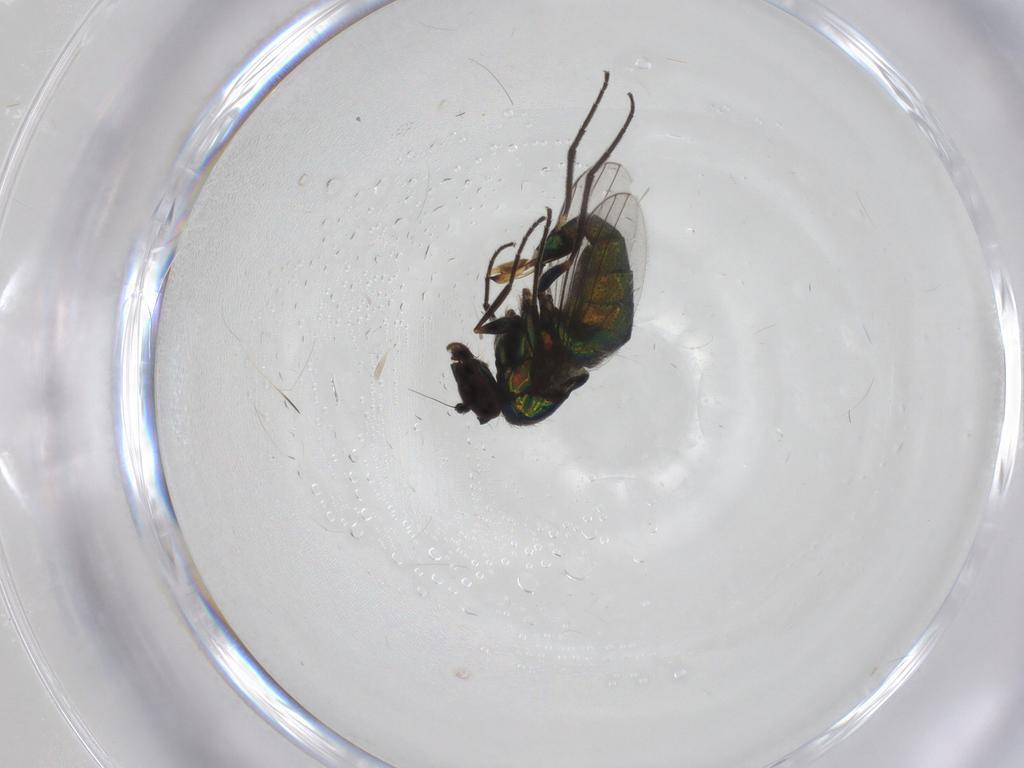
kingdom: Animalia
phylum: Arthropoda
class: Insecta
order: Diptera
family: Dolichopodidae
